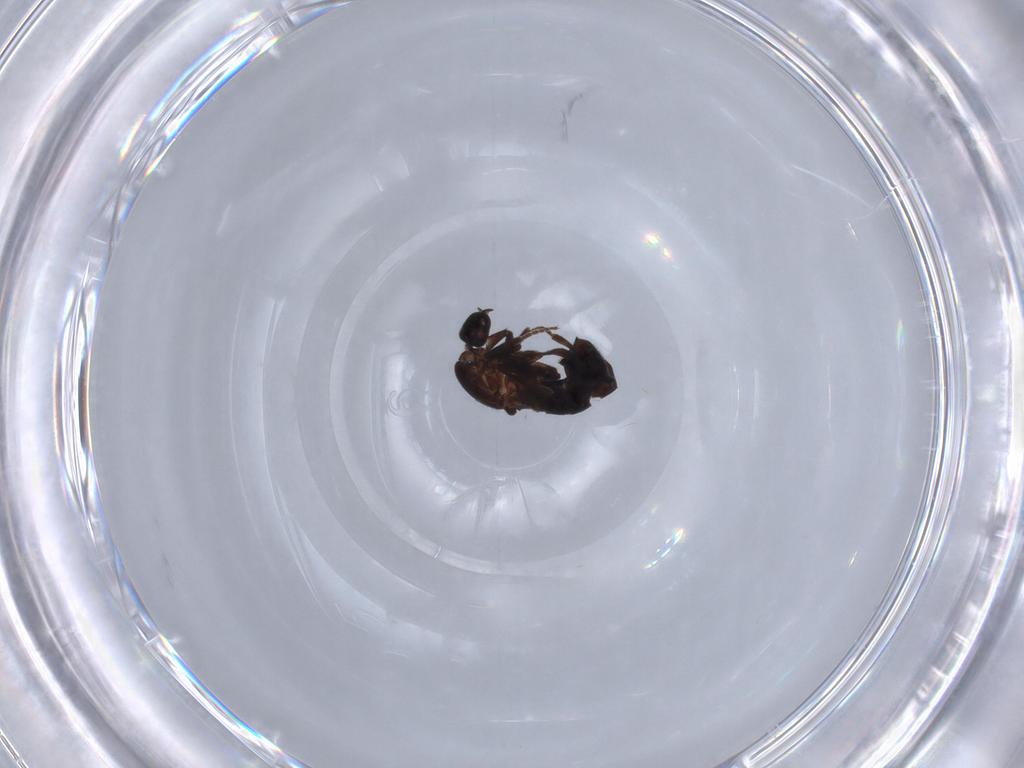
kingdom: Animalia
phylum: Arthropoda
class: Insecta
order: Diptera
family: Scatopsidae
